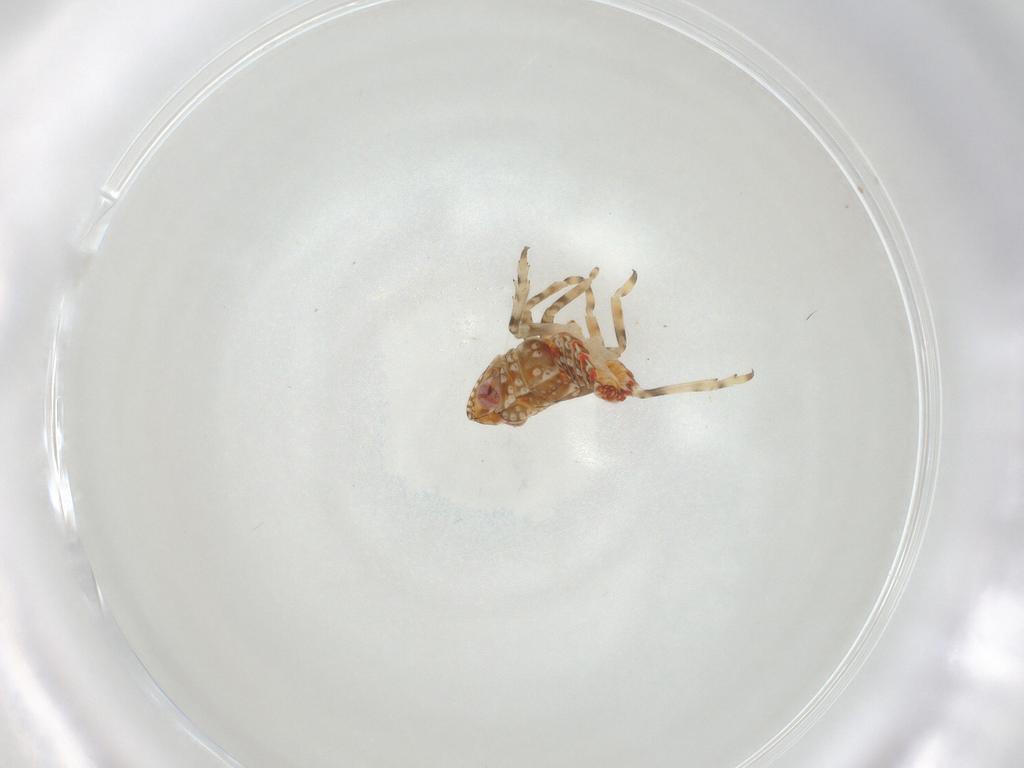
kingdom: Animalia
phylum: Arthropoda
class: Insecta
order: Hemiptera
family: Tropiduchidae
